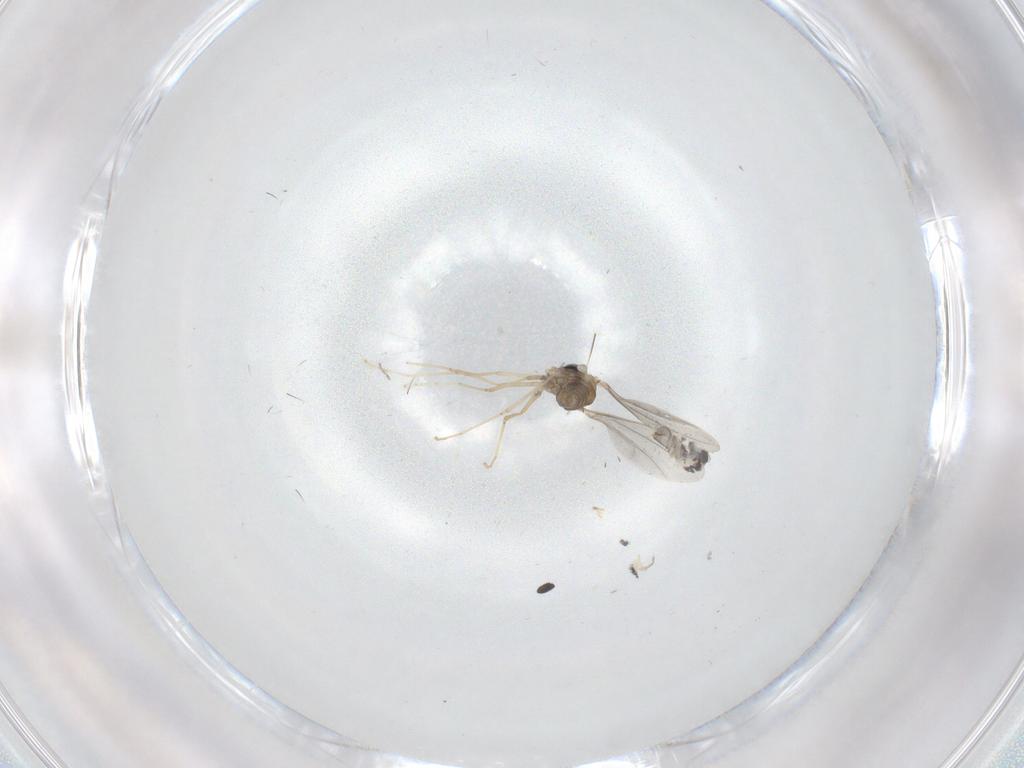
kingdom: Animalia
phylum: Arthropoda
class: Insecta
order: Diptera
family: Cecidomyiidae
